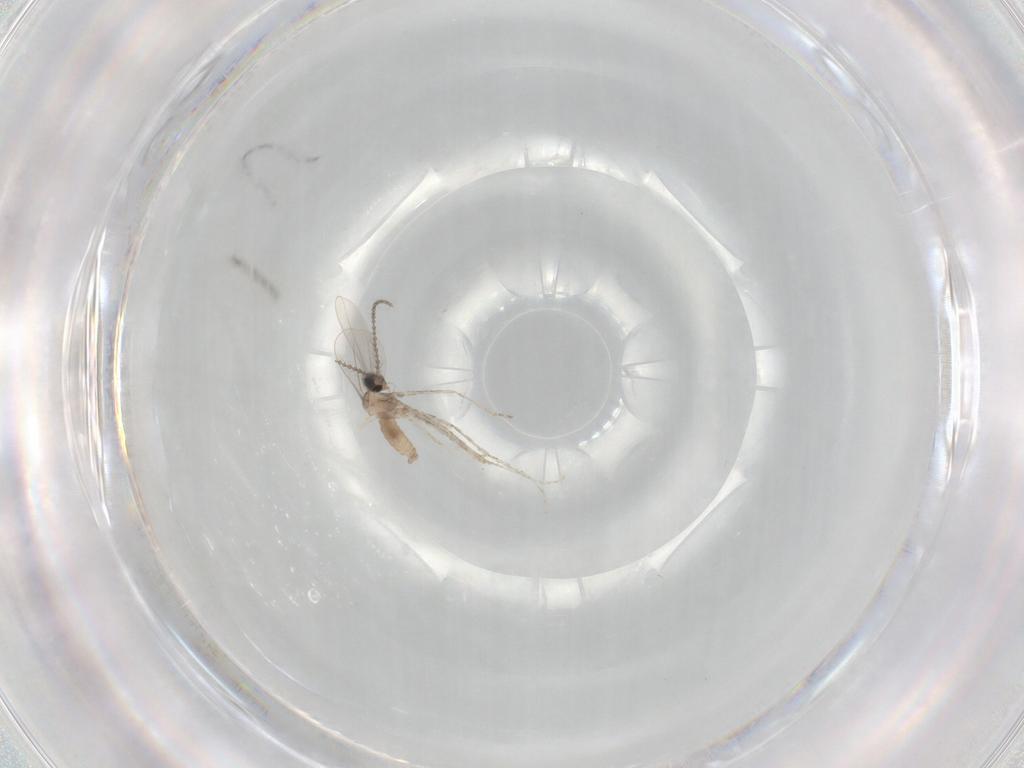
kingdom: Animalia
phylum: Arthropoda
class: Insecta
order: Diptera
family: Cecidomyiidae
